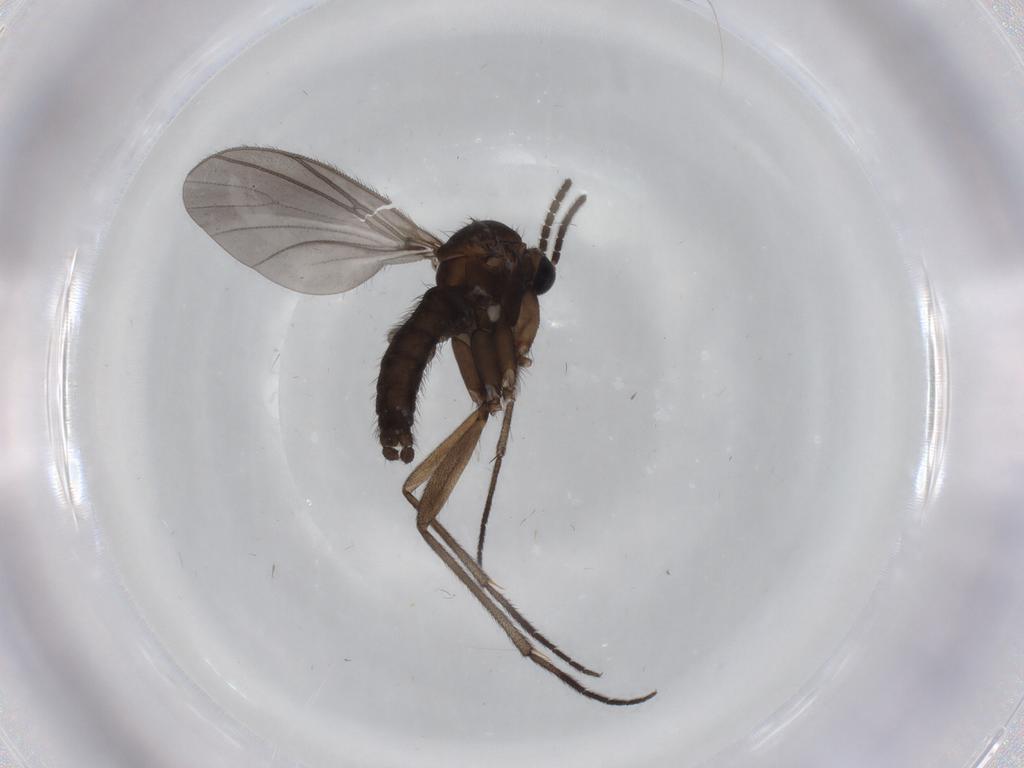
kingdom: Animalia
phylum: Arthropoda
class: Insecta
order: Diptera
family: Sciaridae
